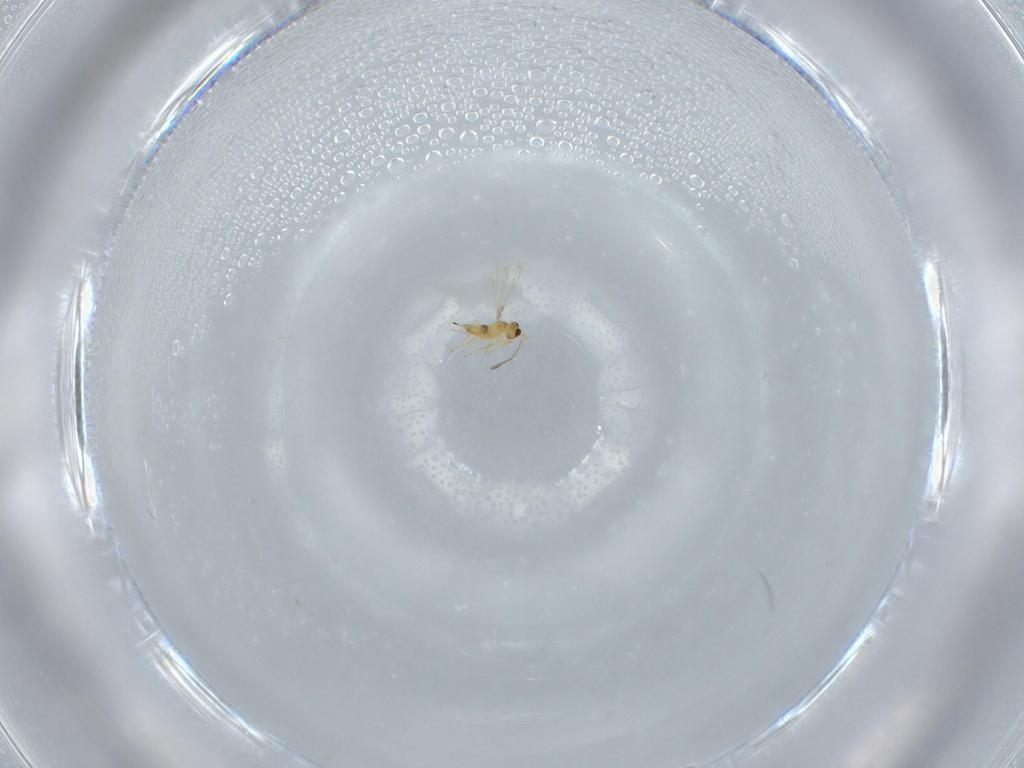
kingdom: Animalia
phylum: Arthropoda
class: Insecta
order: Hymenoptera
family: Mymaridae
